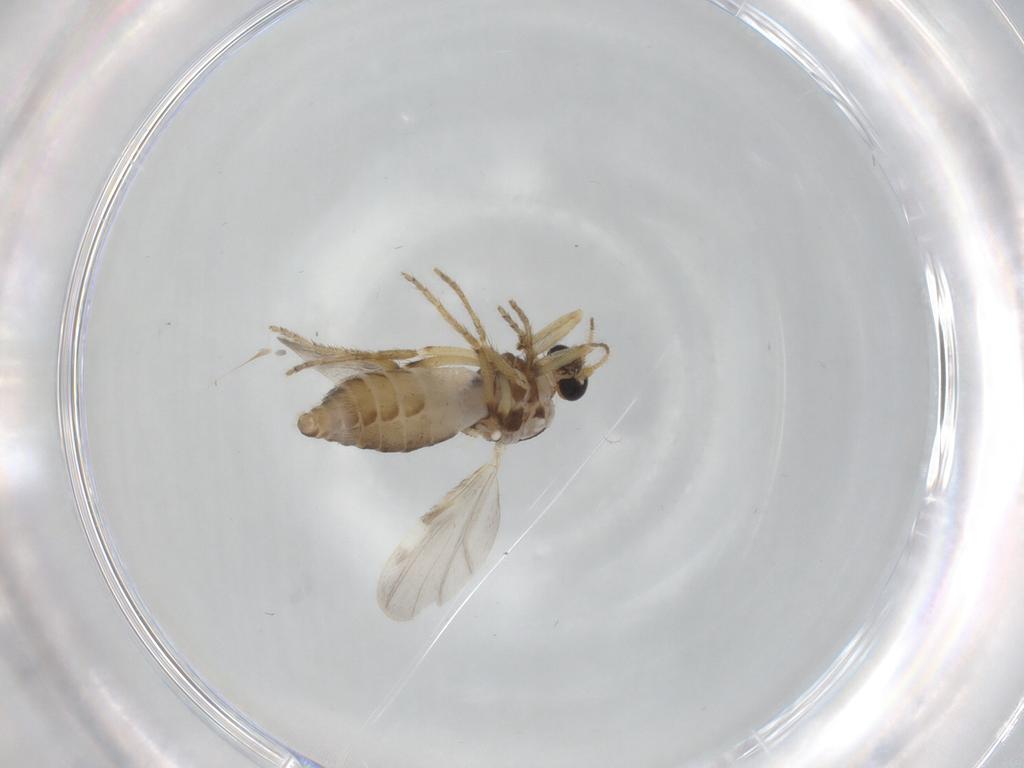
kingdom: Animalia
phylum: Arthropoda
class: Insecta
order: Diptera
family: Ceratopogonidae
